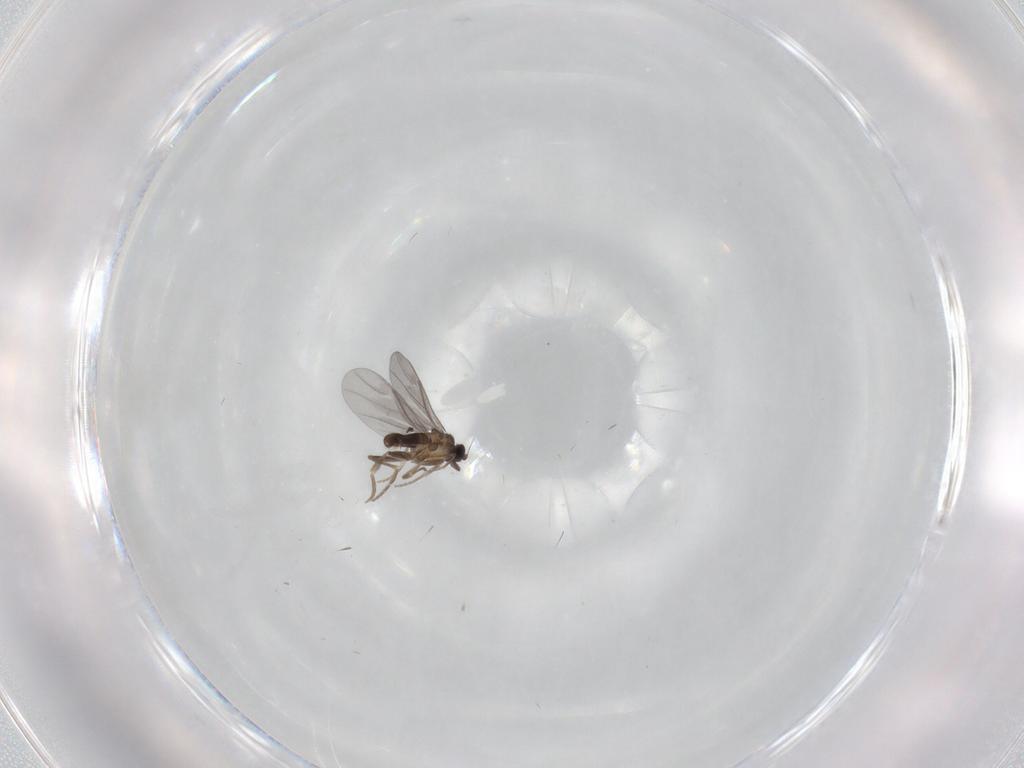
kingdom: Animalia
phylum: Arthropoda
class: Insecta
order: Diptera
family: Cecidomyiidae
